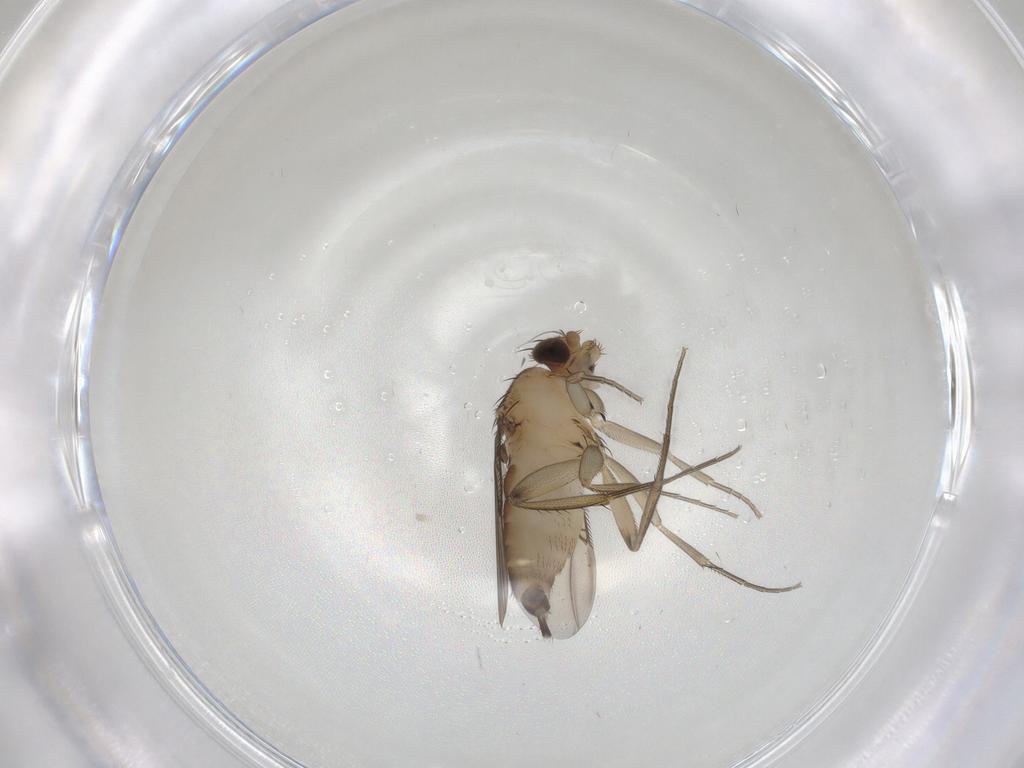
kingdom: Animalia
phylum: Arthropoda
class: Insecta
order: Diptera
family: Phoridae
